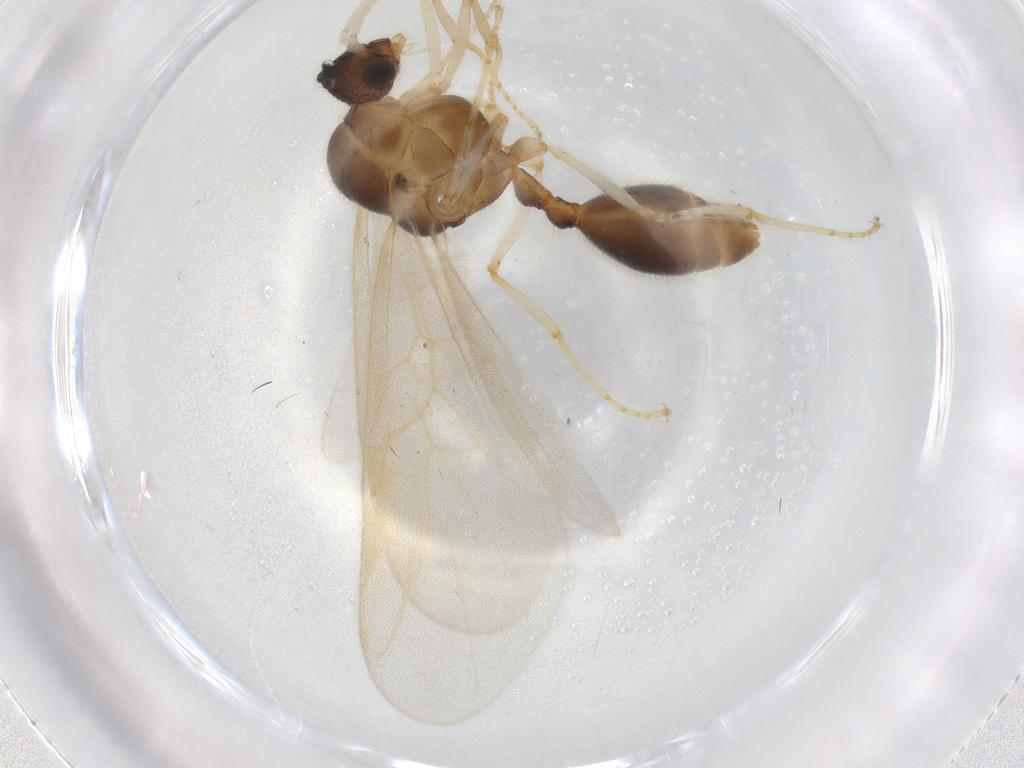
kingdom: Animalia
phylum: Arthropoda
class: Insecta
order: Hymenoptera
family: Formicidae
